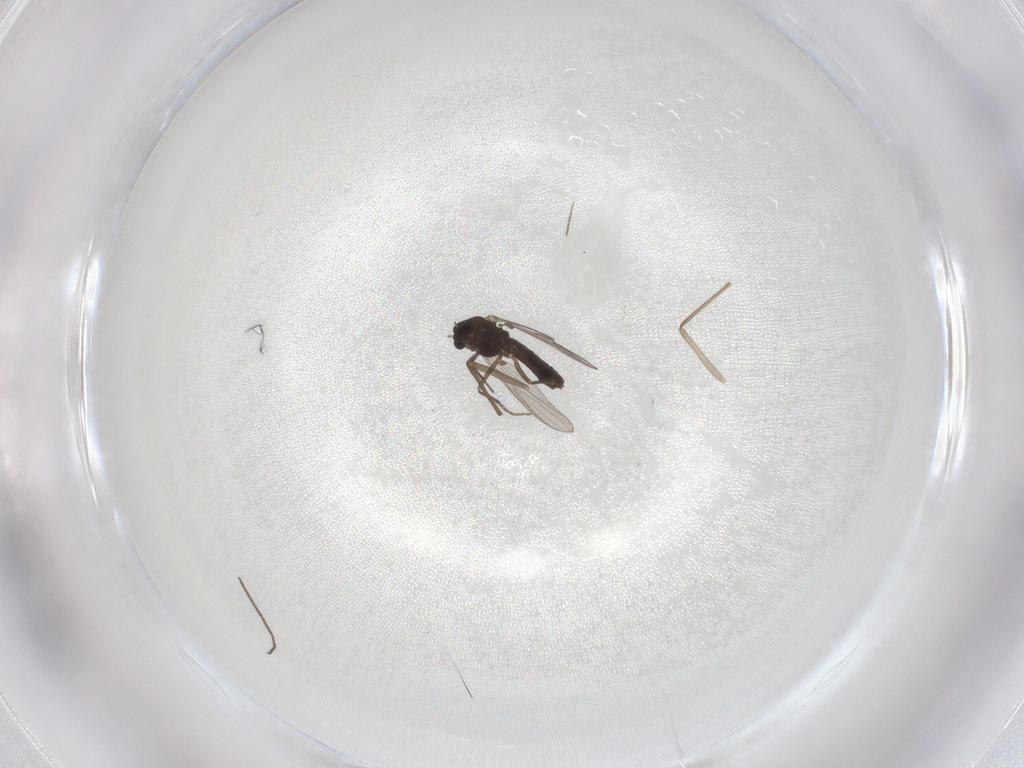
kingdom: Animalia
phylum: Arthropoda
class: Insecta
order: Diptera
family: Chironomidae
